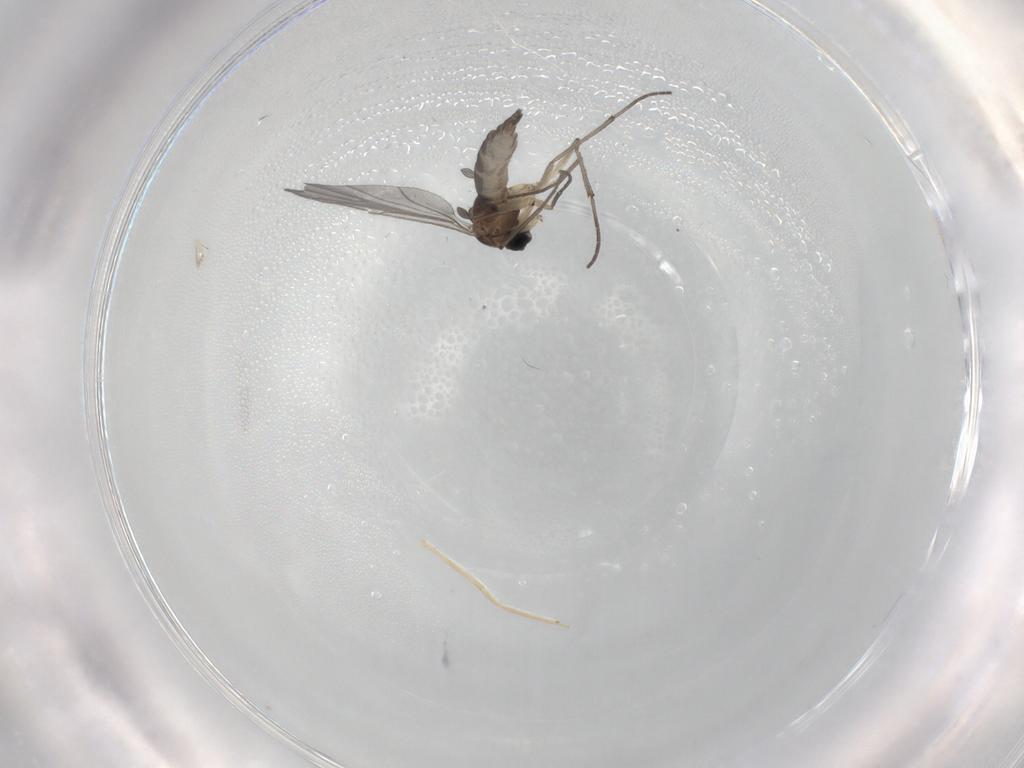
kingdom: Animalia
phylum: Arthropoda
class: Insecta
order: Diptera
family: Sciaridae
